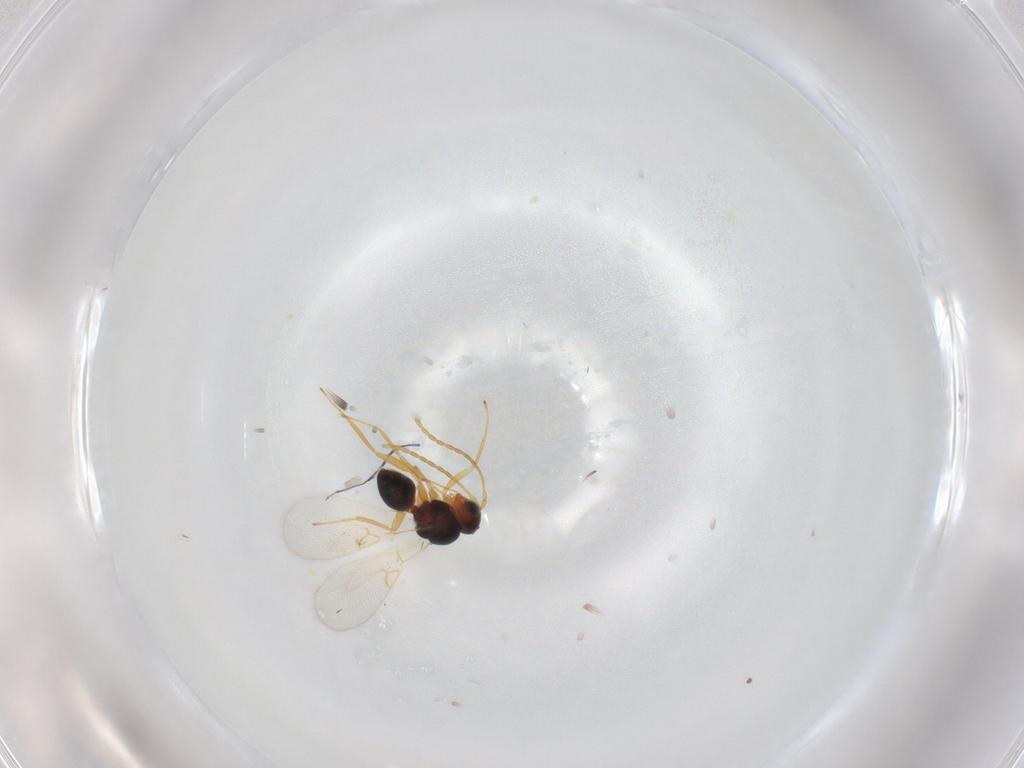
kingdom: Animalia
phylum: Arthropoda
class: Insecta
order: Hymenoptera
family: Figitidae
